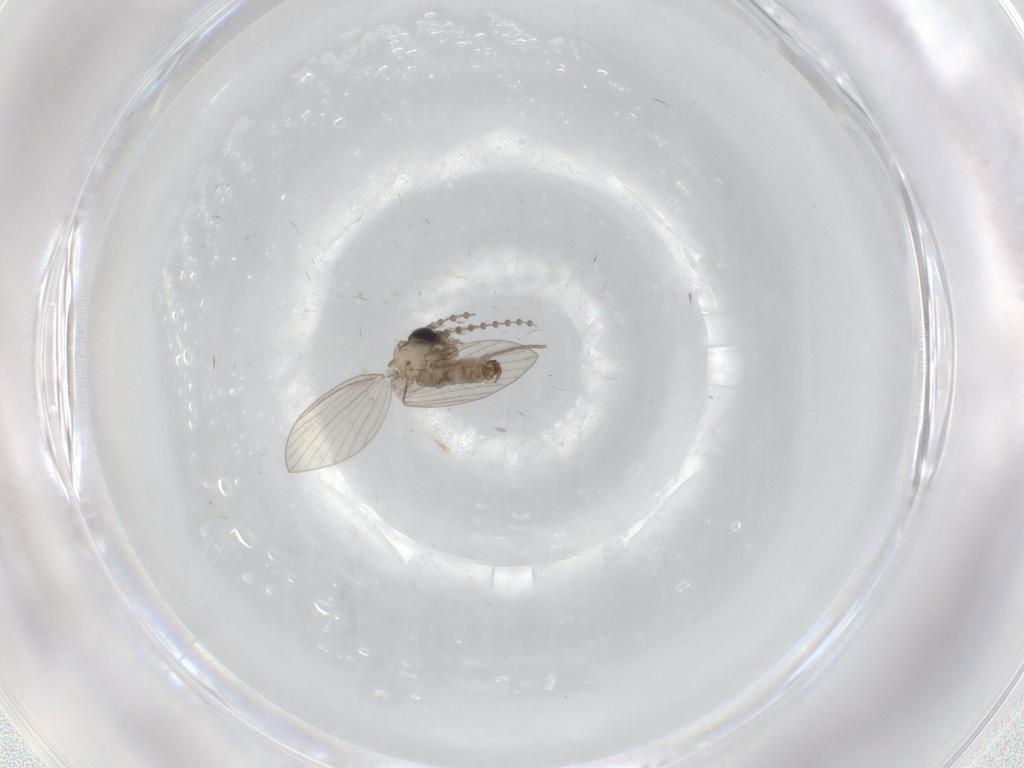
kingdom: Animalia
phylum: Arthropoda
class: Insecta
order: Diptera
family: Psychodidae
